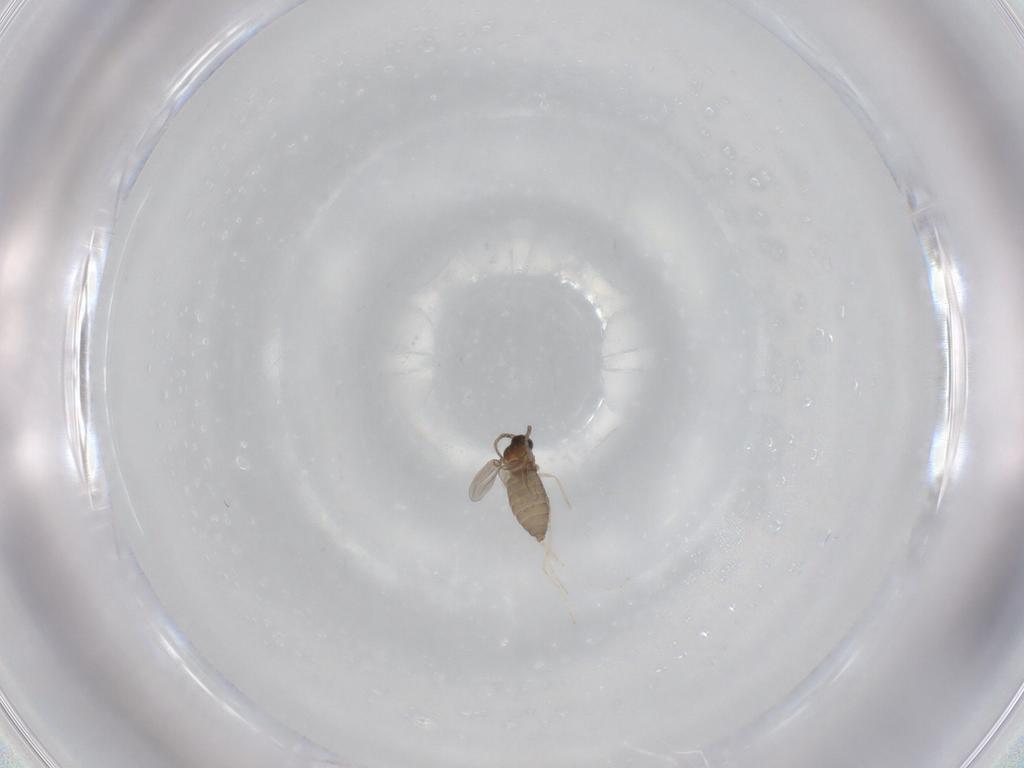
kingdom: Animalia
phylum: Arthropoda
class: Insecta
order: Diptera
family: Cecidomyiidae
